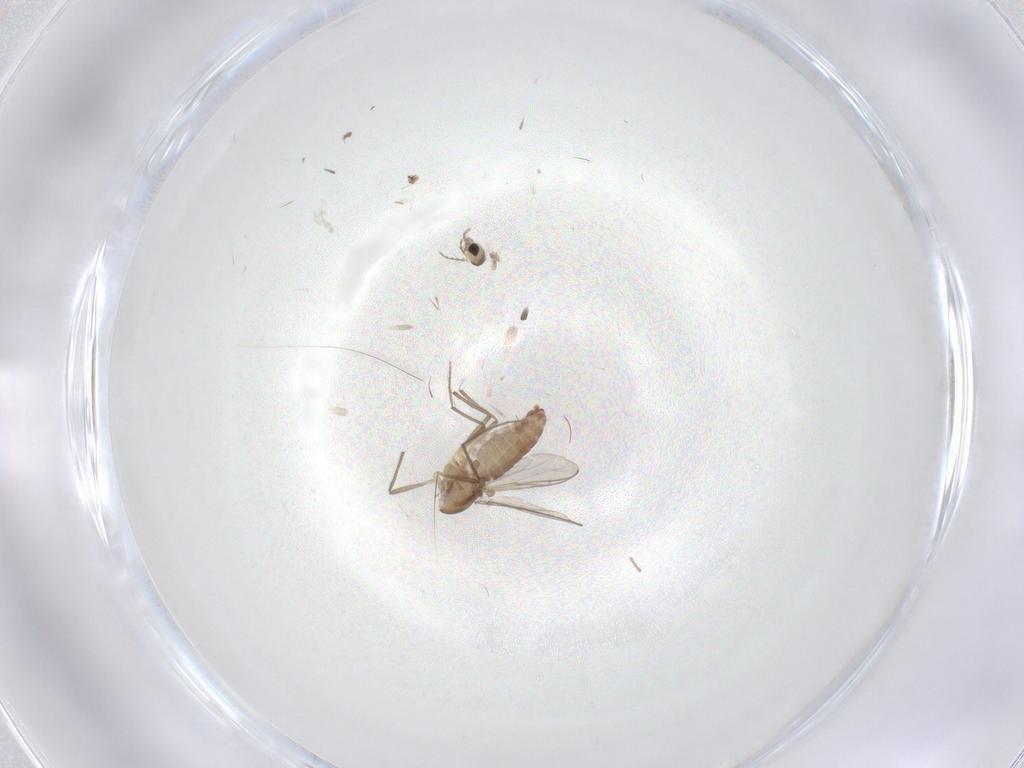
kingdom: Animalia
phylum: Arthropoda
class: Insecta
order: Diptera
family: Chironomidae
